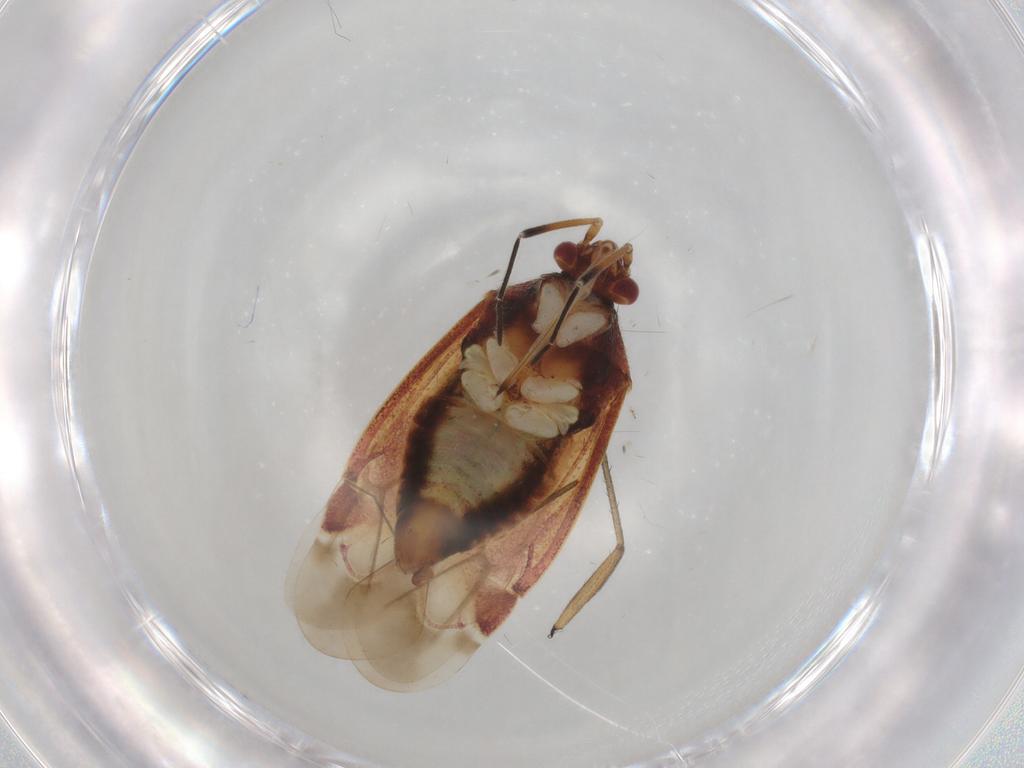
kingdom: Animalia
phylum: Arthropoda
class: Insecta
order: Hemiptera
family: Miridae
